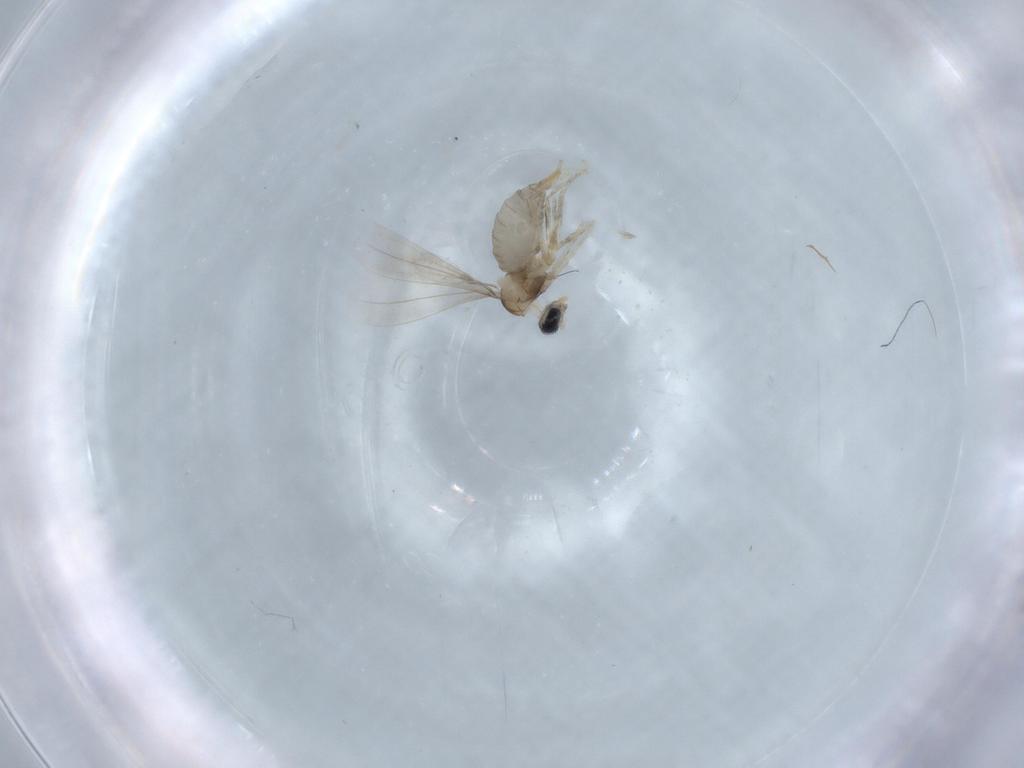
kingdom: Animalia
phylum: Arthropoda
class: Insecta
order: Diptera
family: Cecidomyiidae
